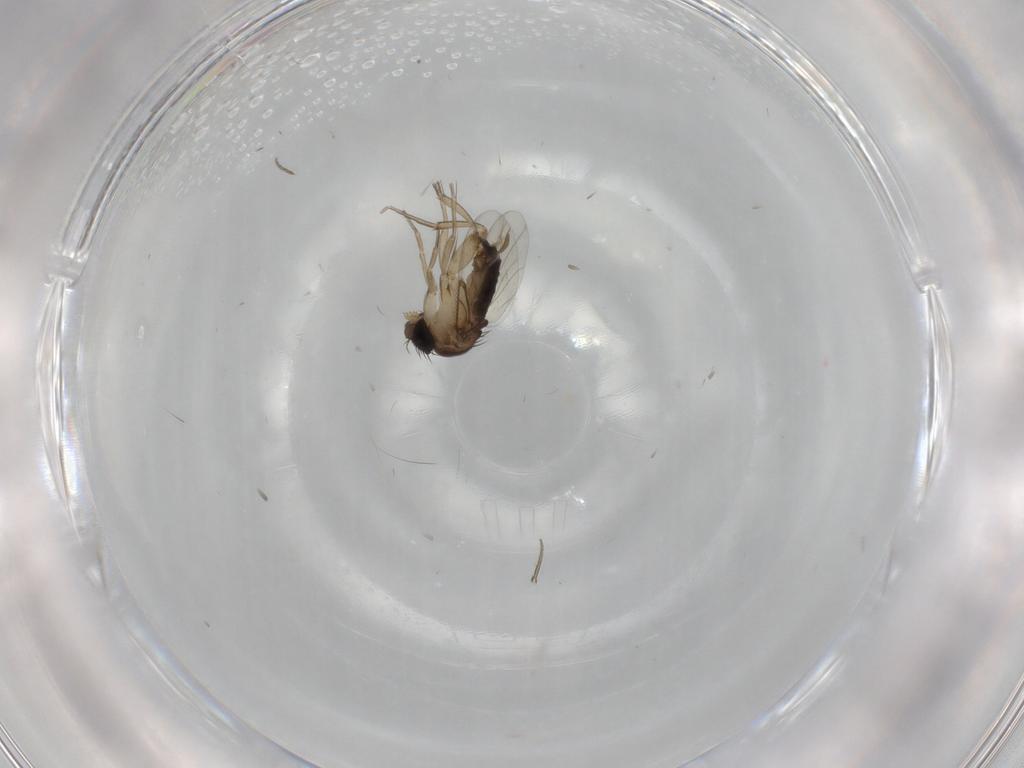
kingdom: Animalia
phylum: Arthropoda
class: Insecta
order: Diptera
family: Phoridae
